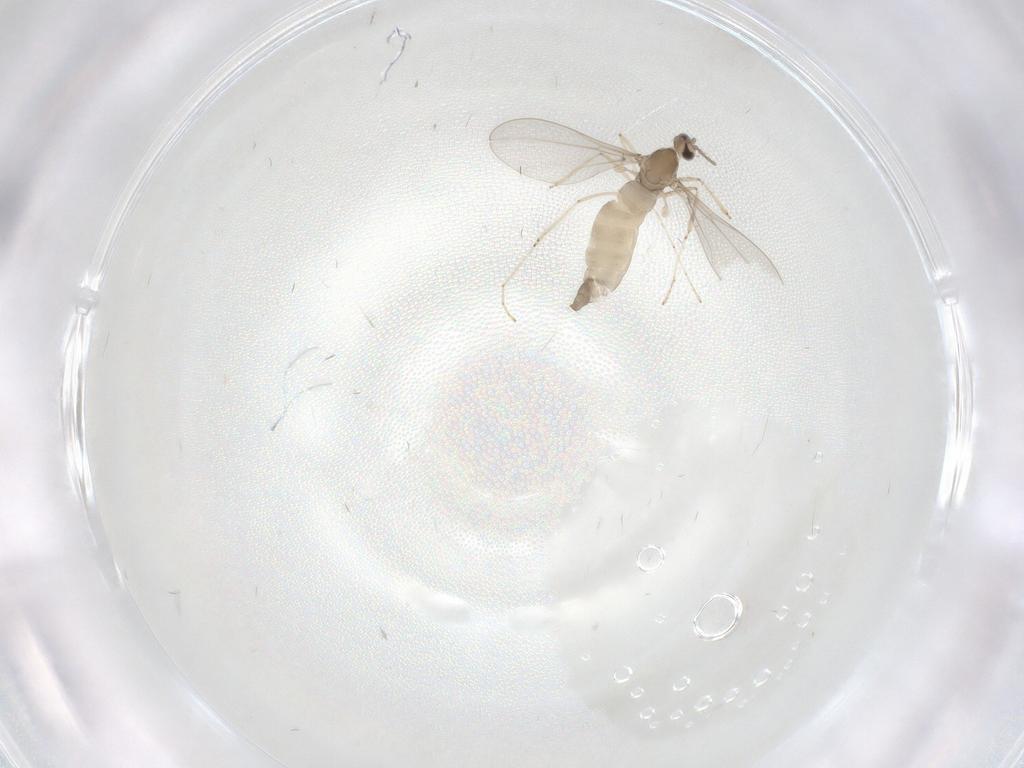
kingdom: Animalia
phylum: Arthropoda
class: Insecta
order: Diptera
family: Cecidomyiidae
